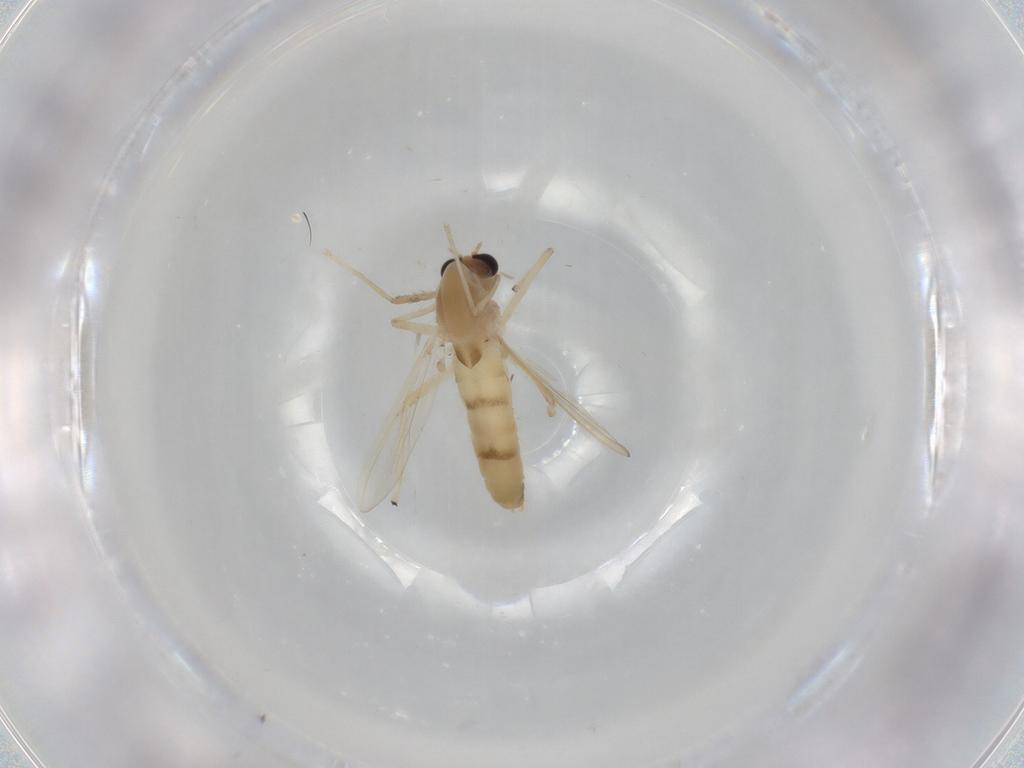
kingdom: Animalia
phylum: Arthropoda
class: Insecta
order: Diptera
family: Chironomidae
